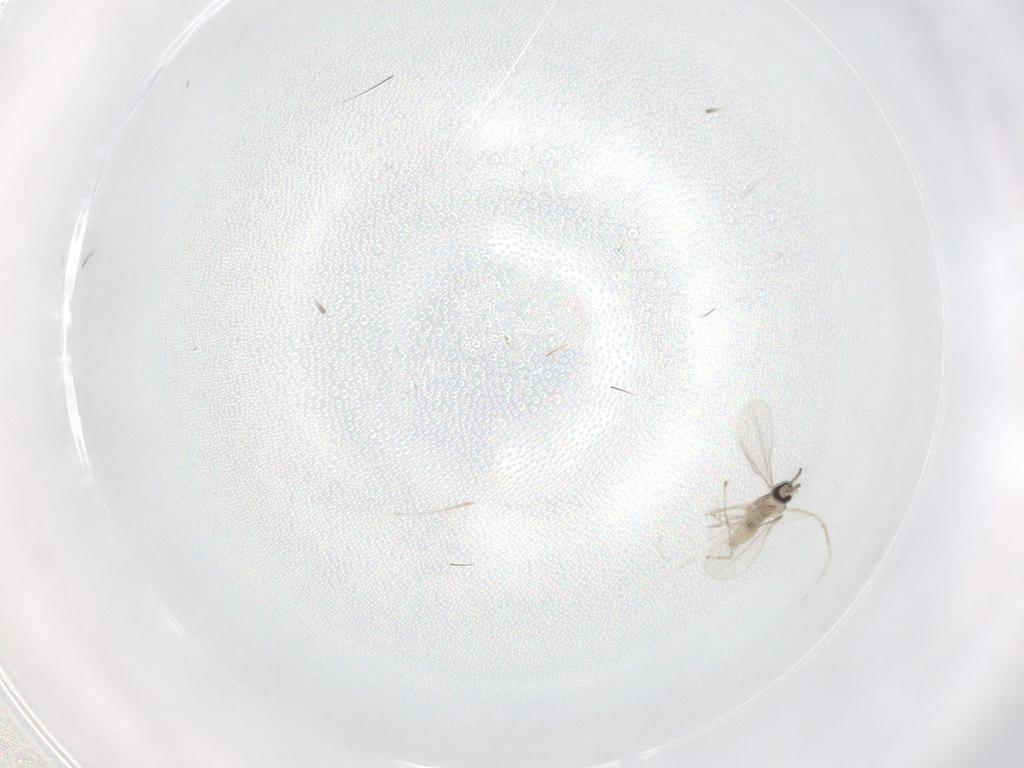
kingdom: Animalia
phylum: Arthropoda
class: Insecta
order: Diptera
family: Cecidomyiidae
